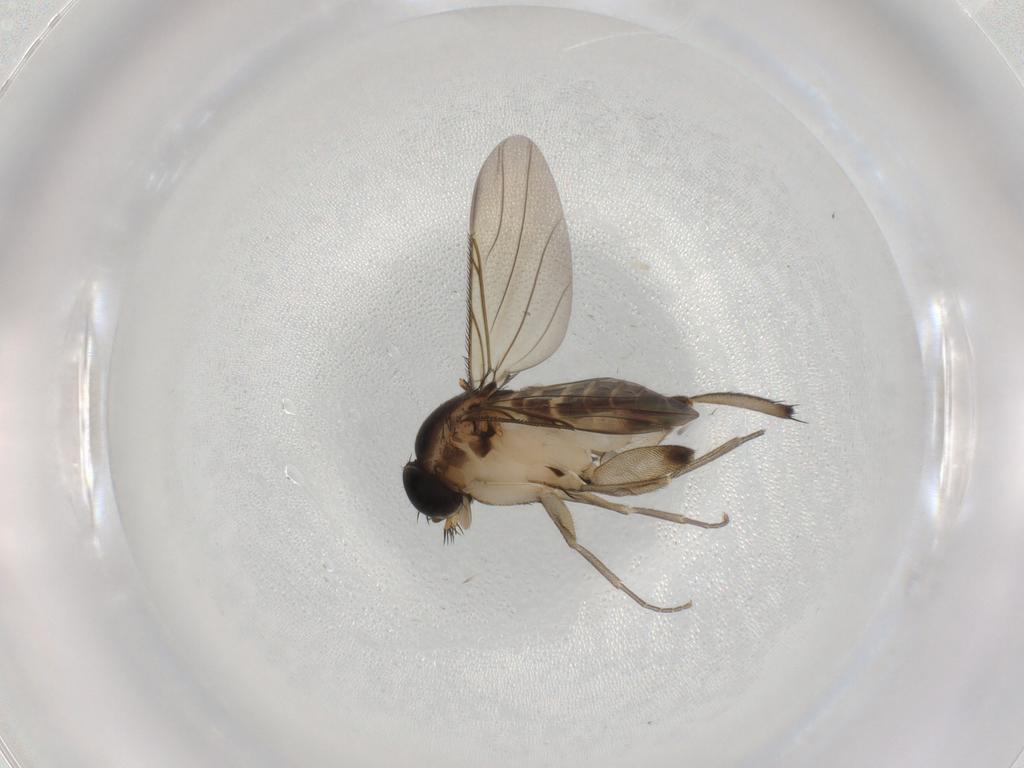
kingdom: Animalia
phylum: Arthropoda
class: Insecta
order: Diptera
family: Phoridae
